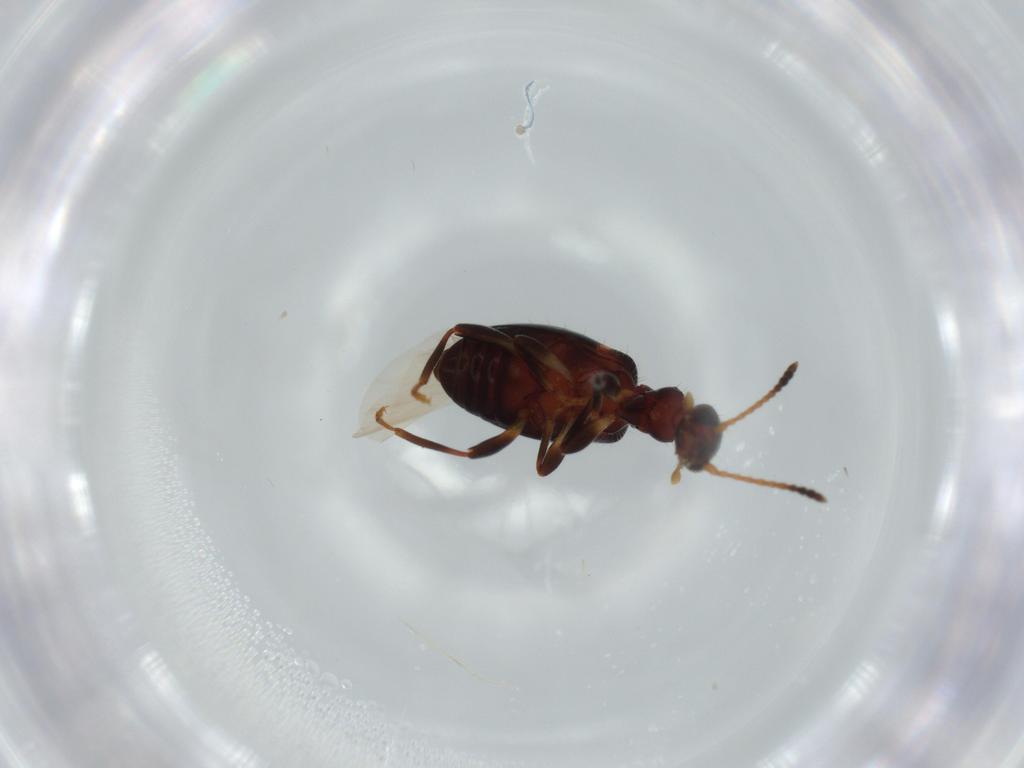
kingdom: Animalia
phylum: Arthropoda
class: Insecta
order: Coleoptera
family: Anthicidae
